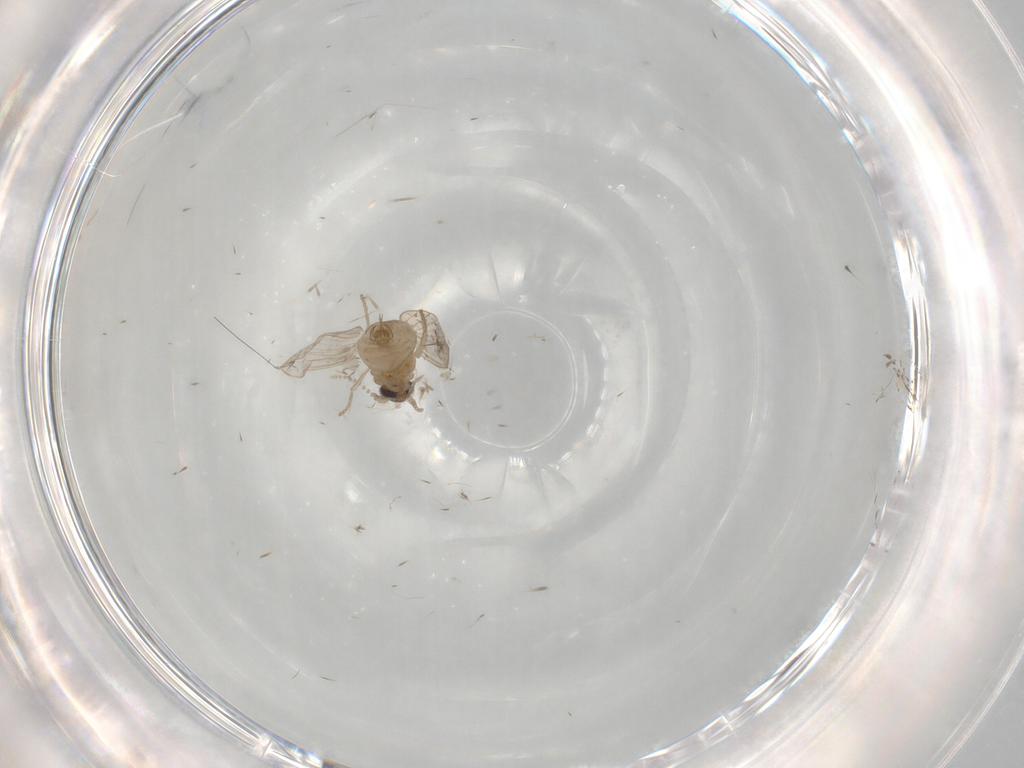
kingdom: Animalia
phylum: Arthropoda
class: Insecta
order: Diptera
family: Psychodidae
